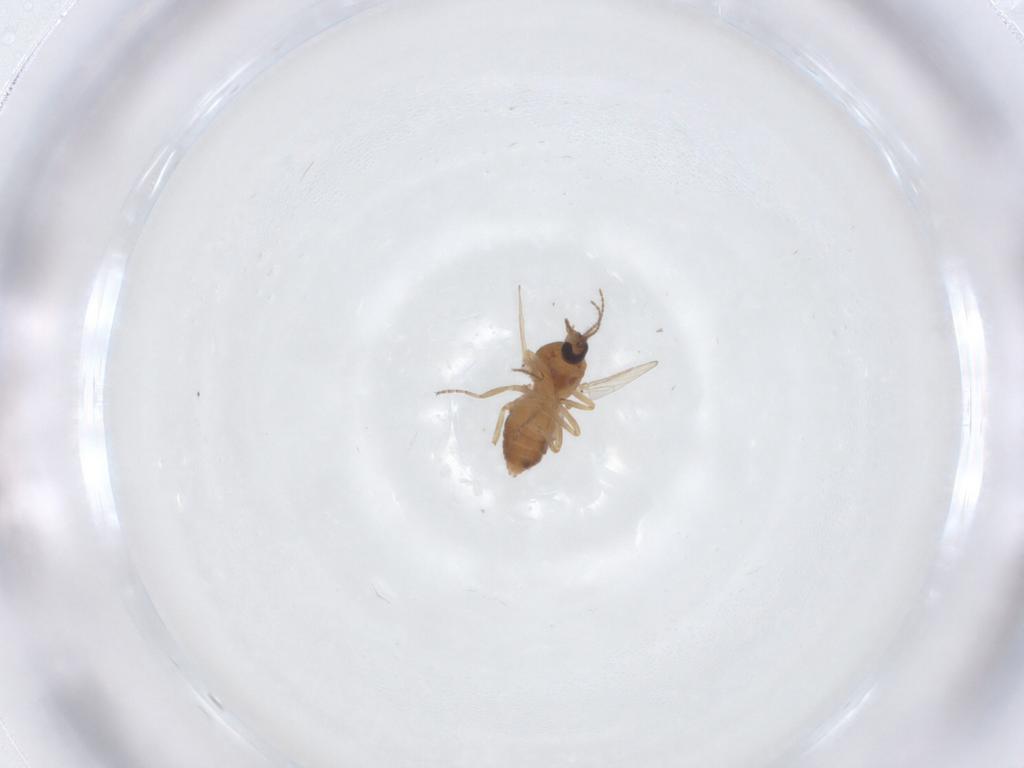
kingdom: Animalia
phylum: Arthropoda
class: Insecta
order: Diptera
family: Ceratopogonidae
